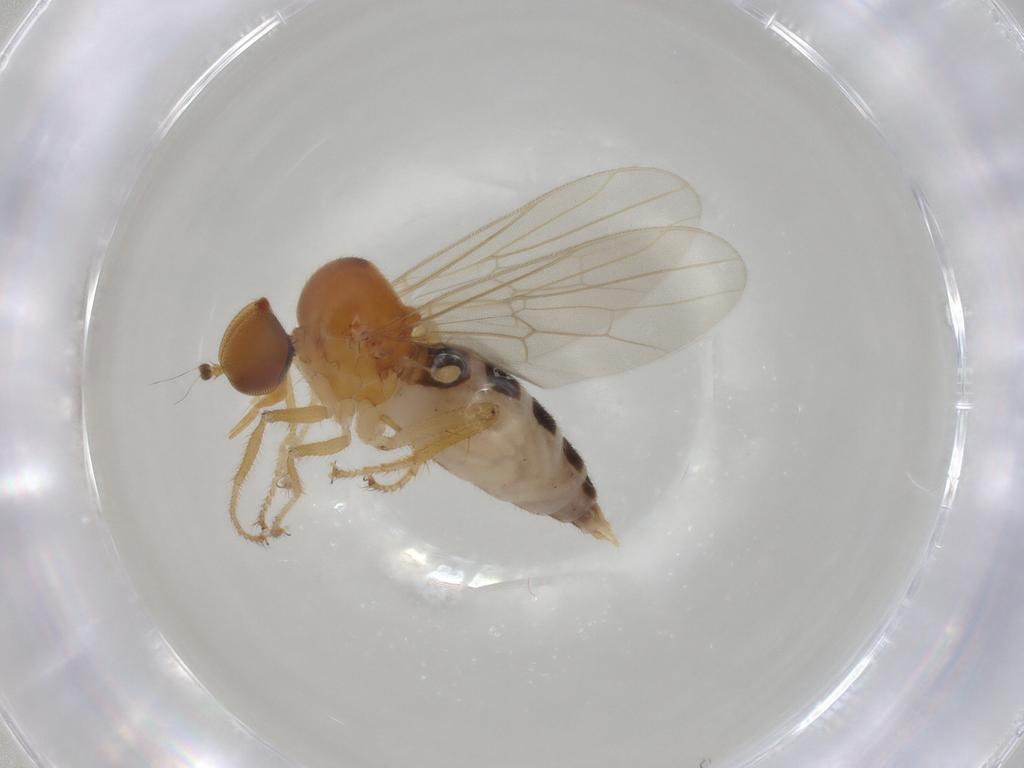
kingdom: Animalia
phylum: Arthropoda
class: Insecta
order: Diptera
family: Hybotidae
